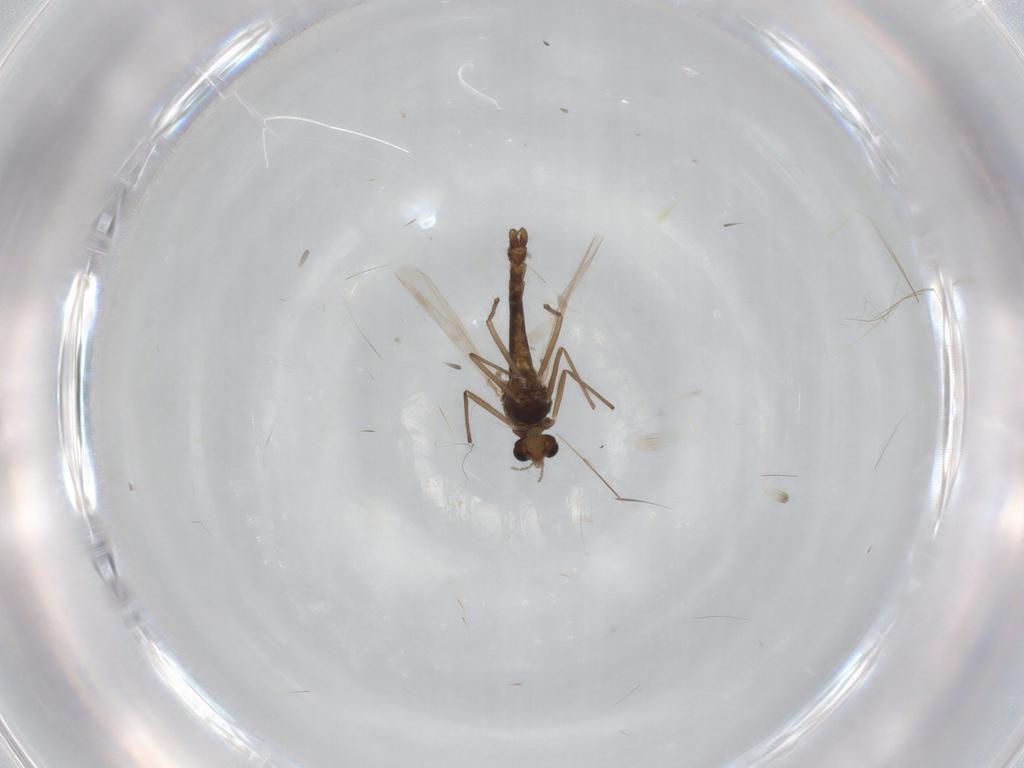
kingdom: Animalia
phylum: Arthropoda
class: Insecta
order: Diptera
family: Chironomidae
